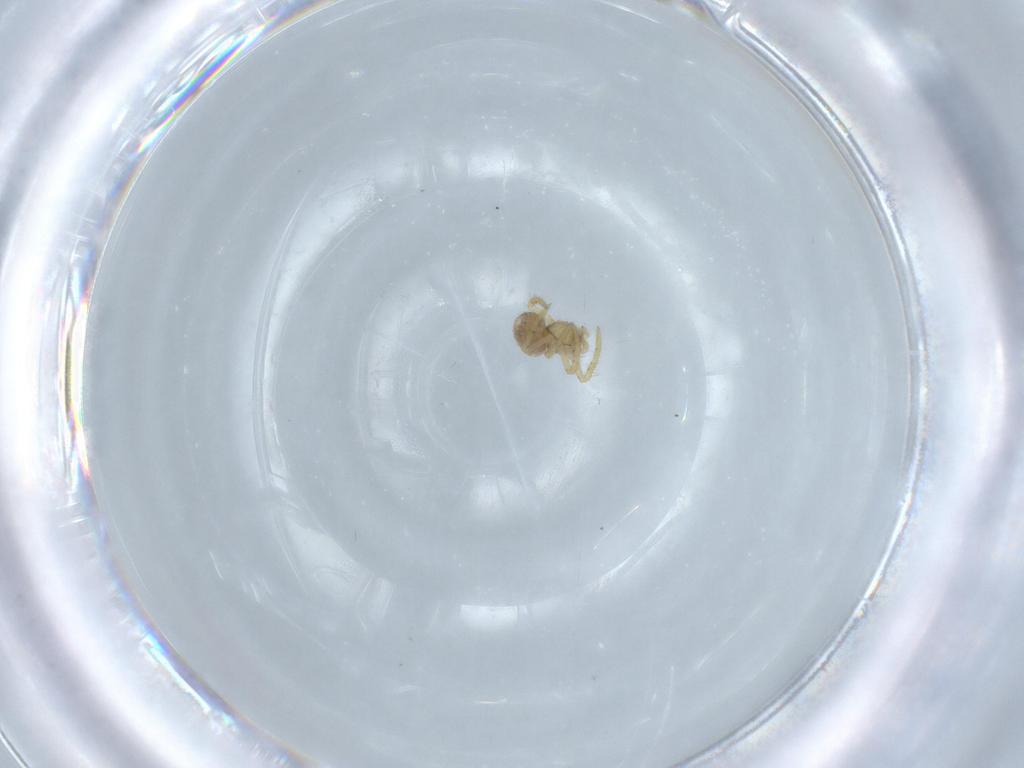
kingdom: Animalia
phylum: Arthropoda
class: Arachnida
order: Araneae
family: Theridiidae
